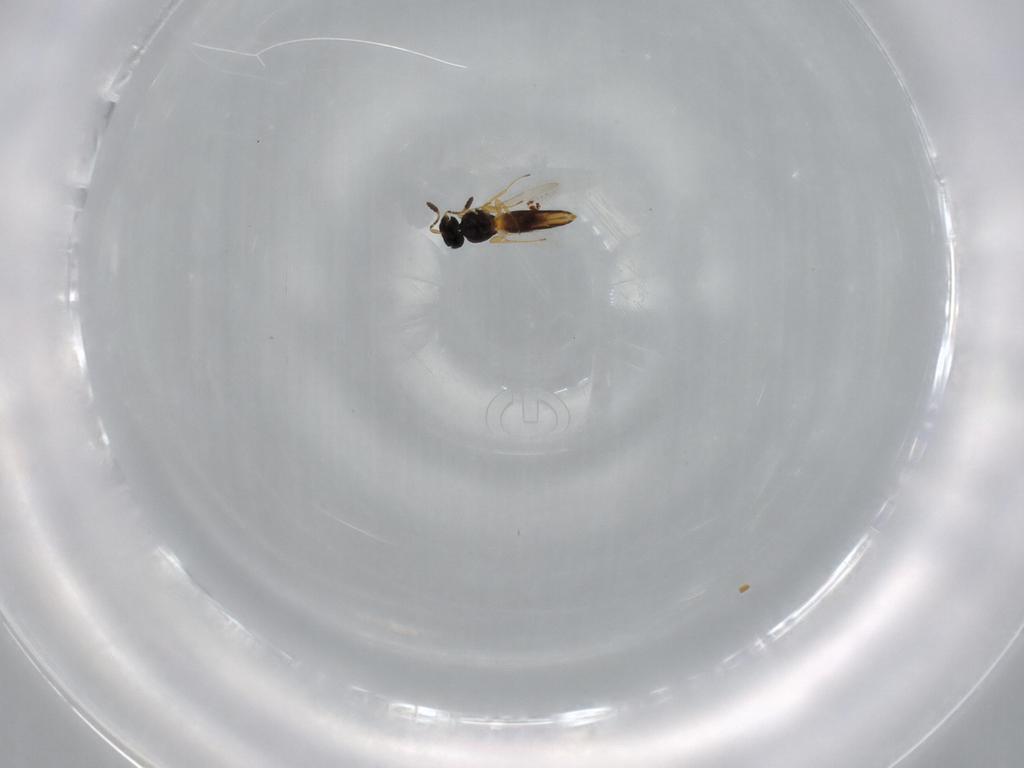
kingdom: Animalia
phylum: Arthropoda
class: Insecta
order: Hymenoptera
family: Scelionidae
